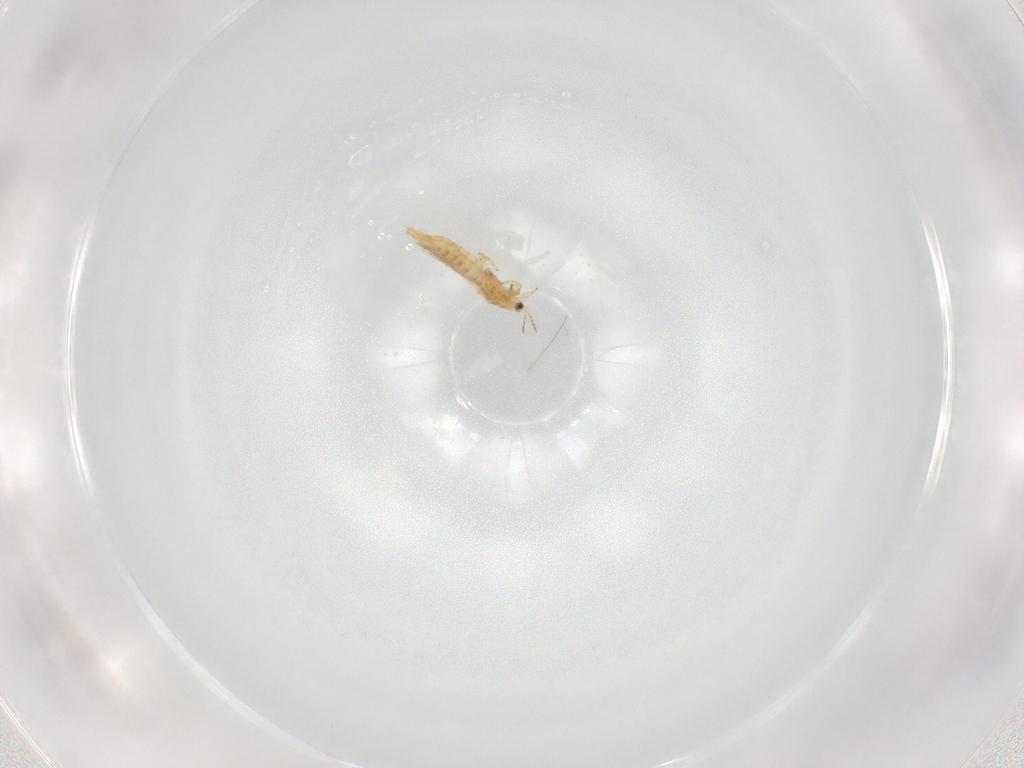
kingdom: Animalia
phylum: Arthropoda
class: Insecta
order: Thysanoptera
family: Thripidae
